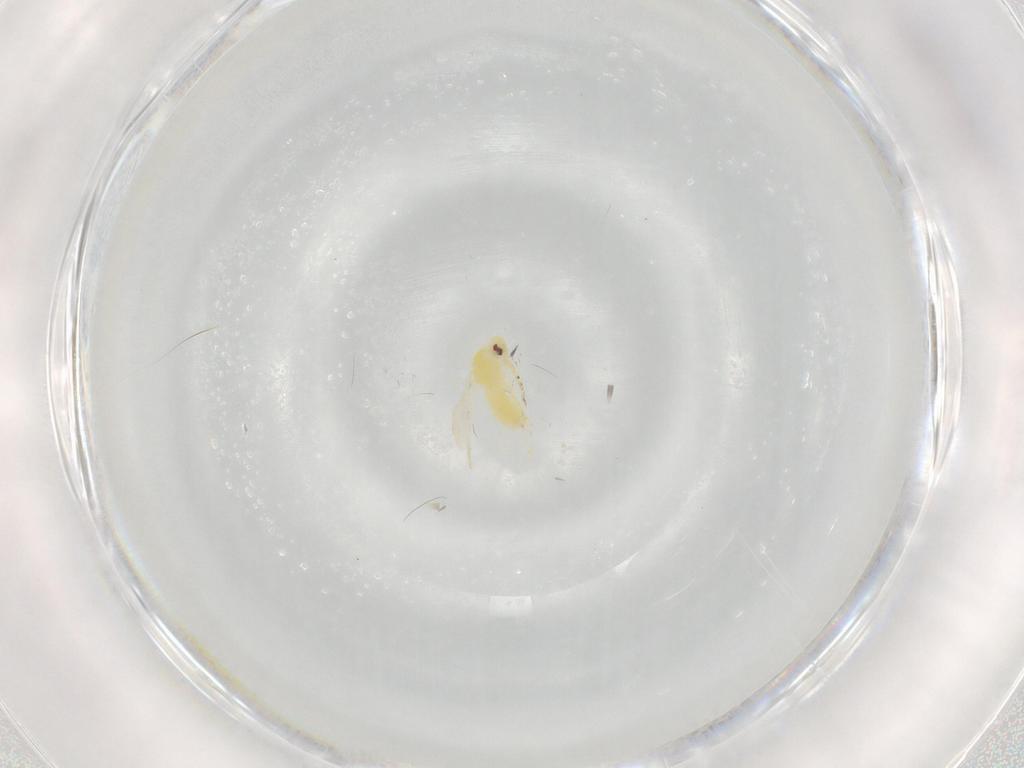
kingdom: Animalia
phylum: Arthropoda
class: Insecta
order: Hemiptera
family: Aleyrodidae
